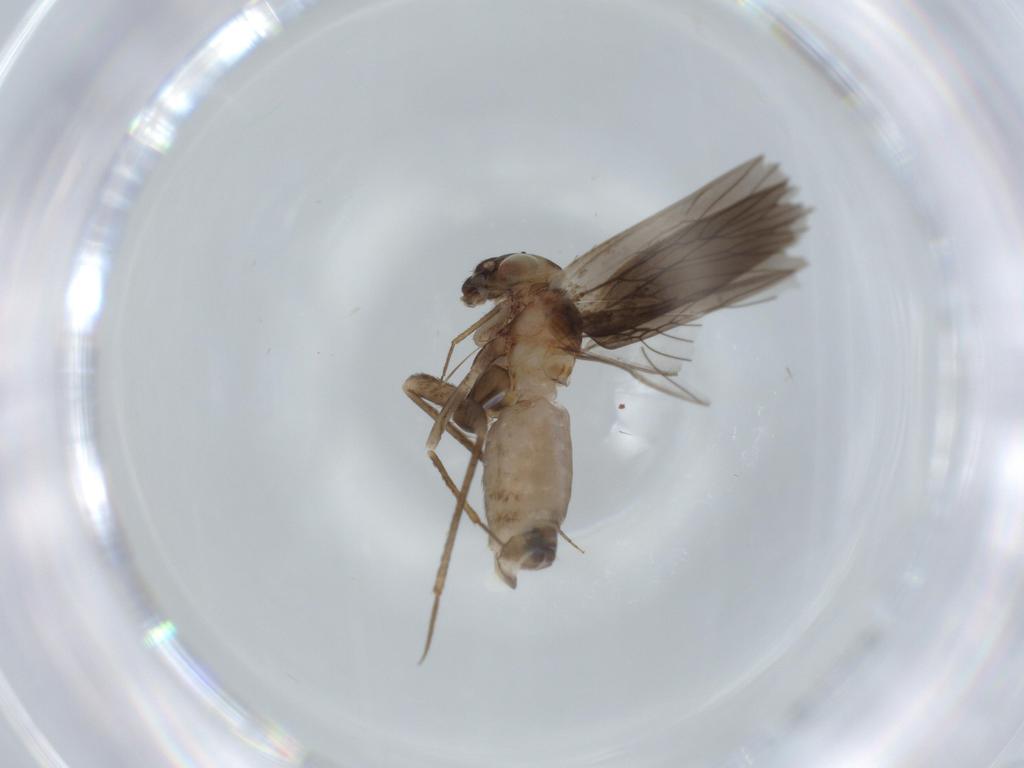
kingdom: Animalia
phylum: Arthropoda
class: Insecta
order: Psocodea
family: Lepidopsocidae
